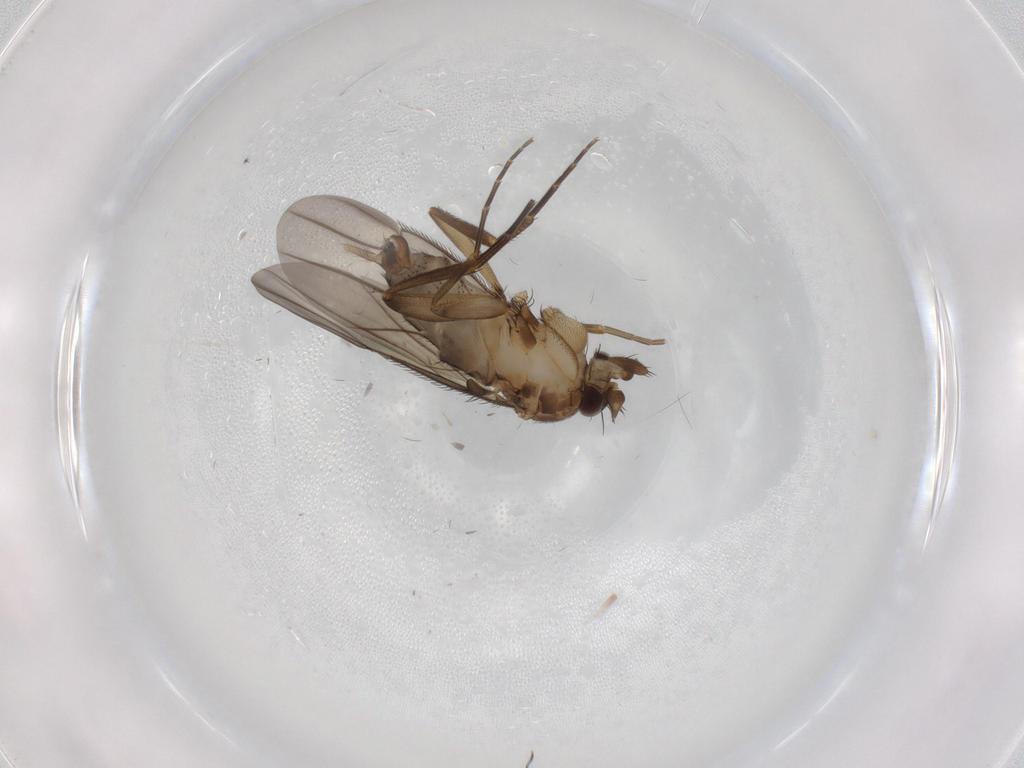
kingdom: Animalia
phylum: Arthropoda
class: Insecta
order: Diptera
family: Phoridae
